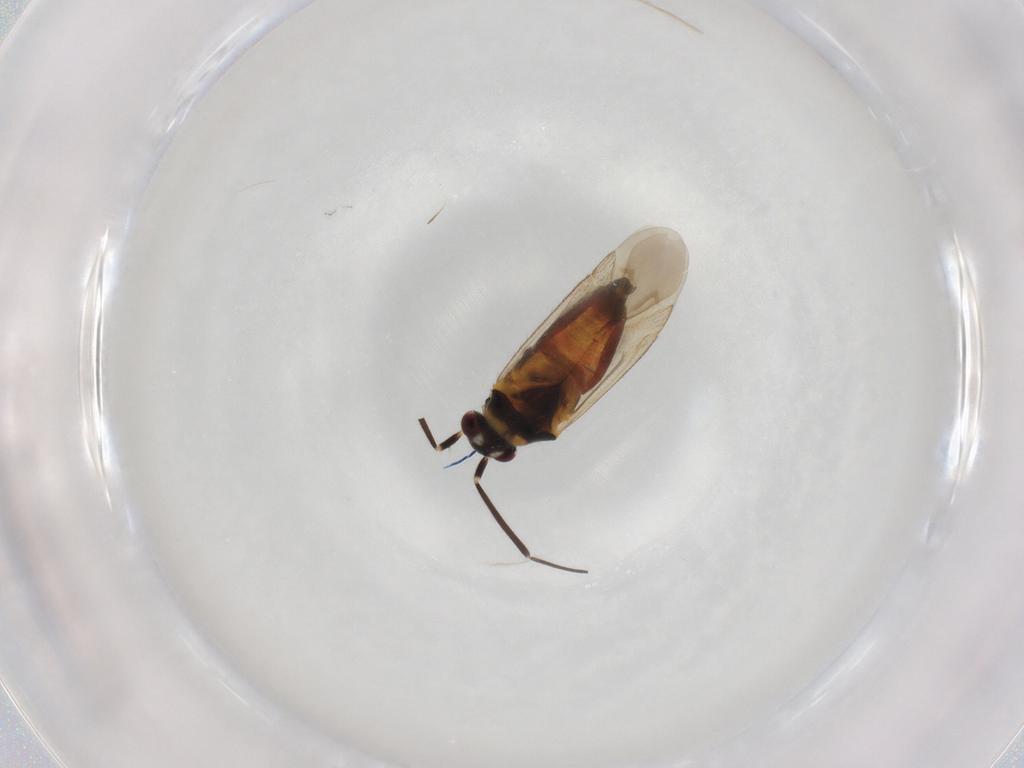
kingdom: Animalia
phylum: Arthropoda
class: Insecta
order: Hemiptera
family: Miridae
